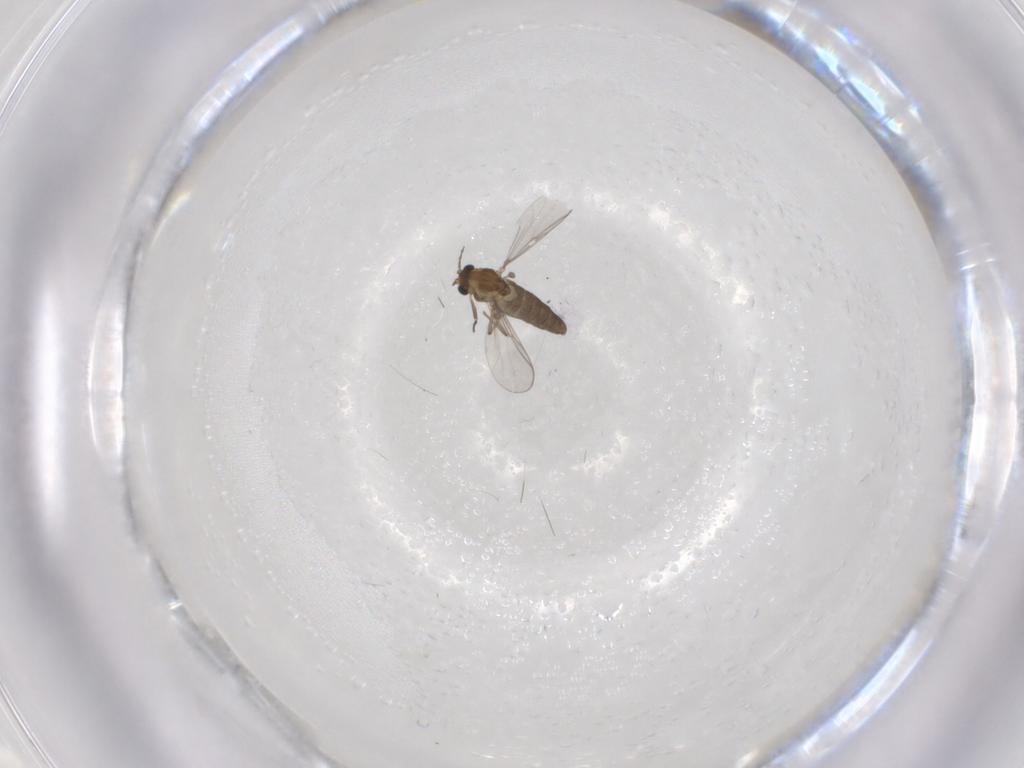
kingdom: Animalia
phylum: Arthropoda
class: Insecta
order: Diptera
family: Chironomidae
